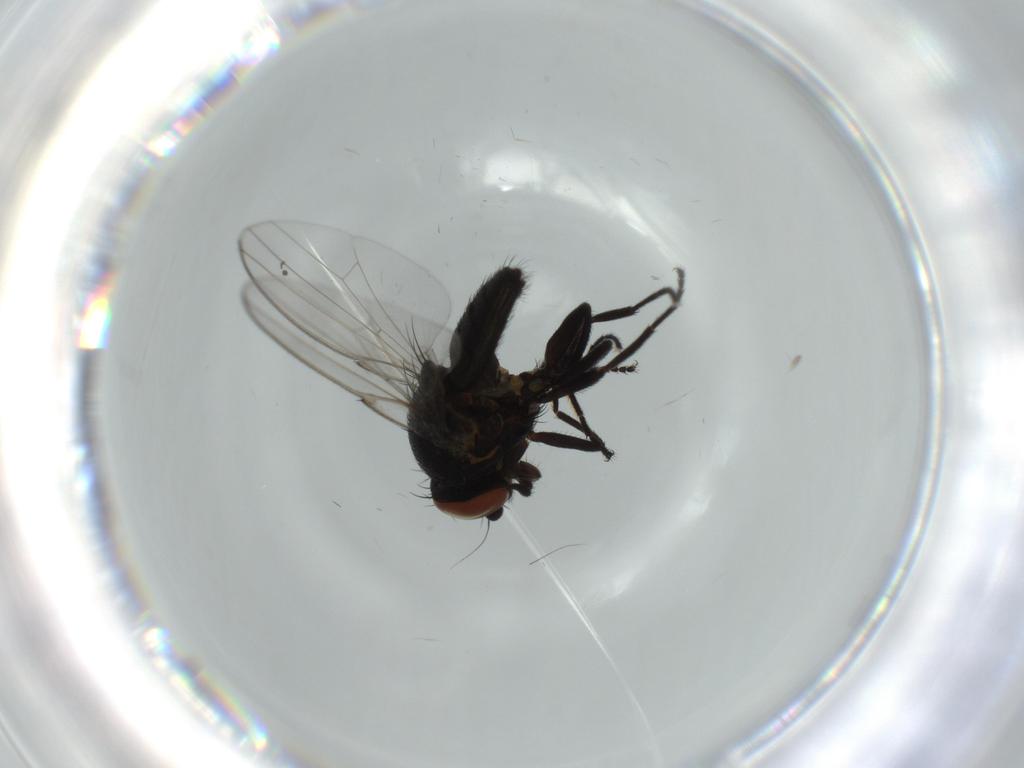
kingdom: Animalia
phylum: Arthropoda
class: Insecta
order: Diptera
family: Milichiidae
